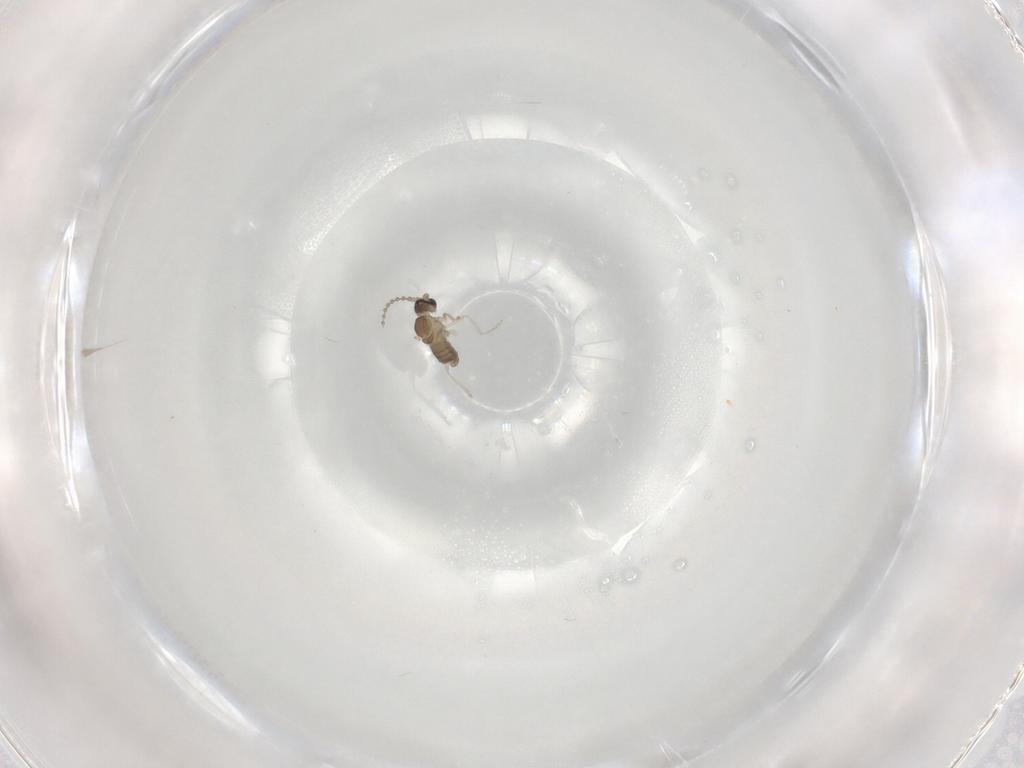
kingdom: Animalia
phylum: Arthropoda
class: Insecta
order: Diptera
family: Cecidomyiidae
